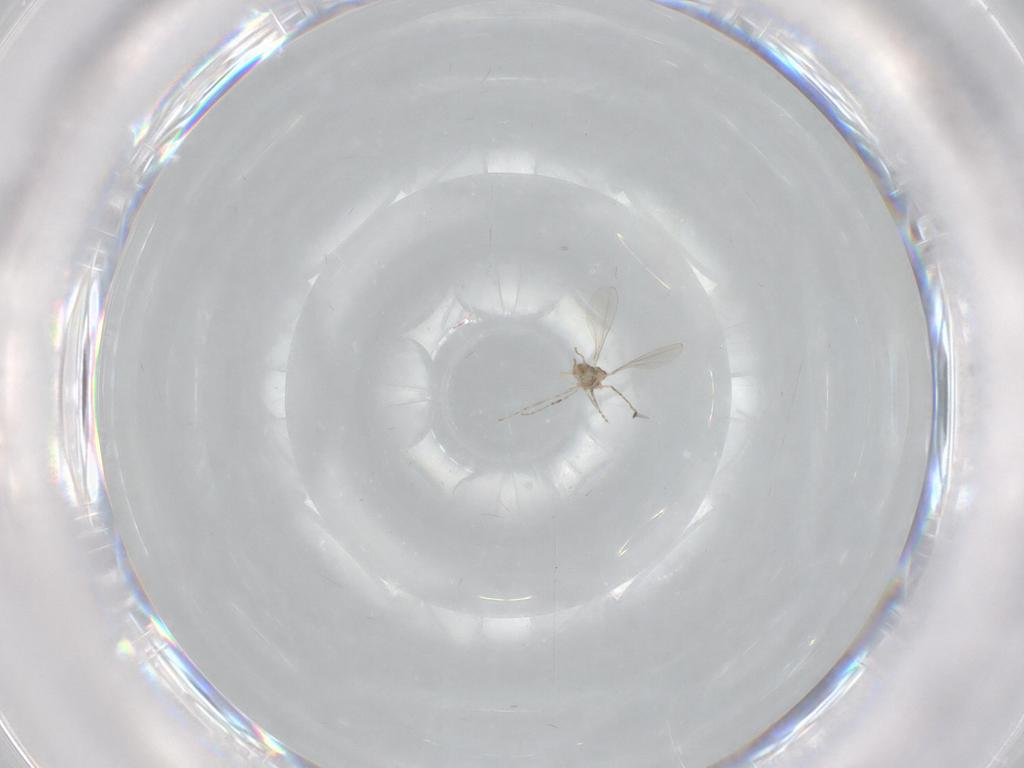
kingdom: Animalia
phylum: Arthropoda
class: Insecta
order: Diptera
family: Cecidomyiidae
